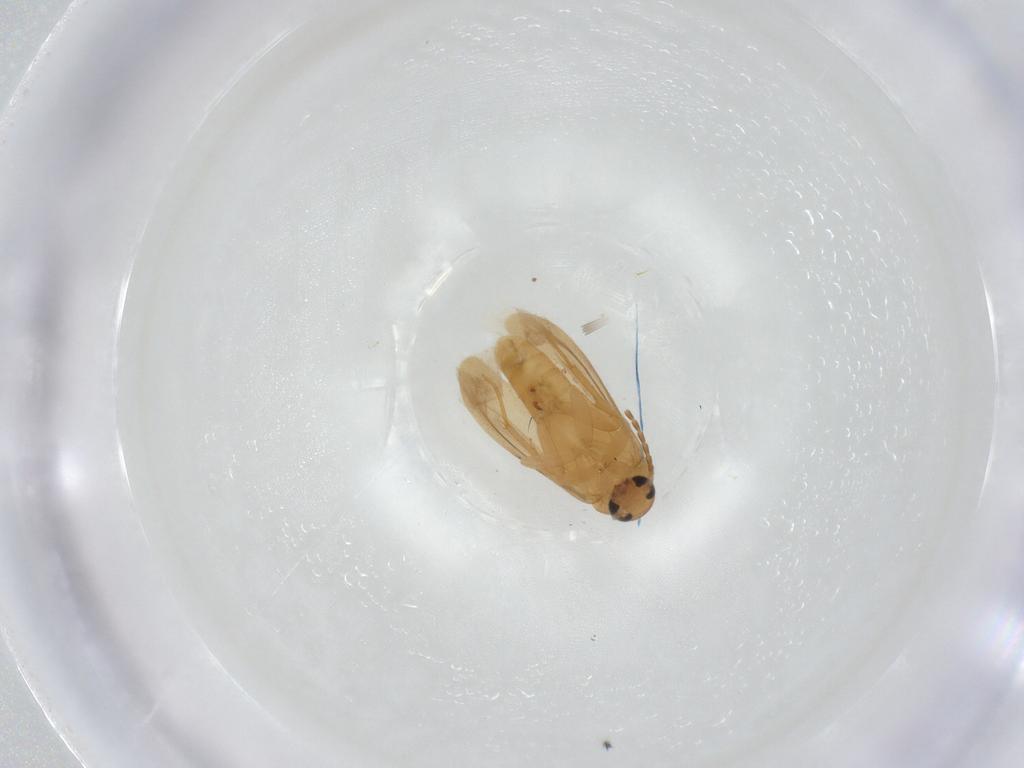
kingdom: Animalia
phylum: Arthropoda
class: Insecta
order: Coleoptera
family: Scraptiidae
